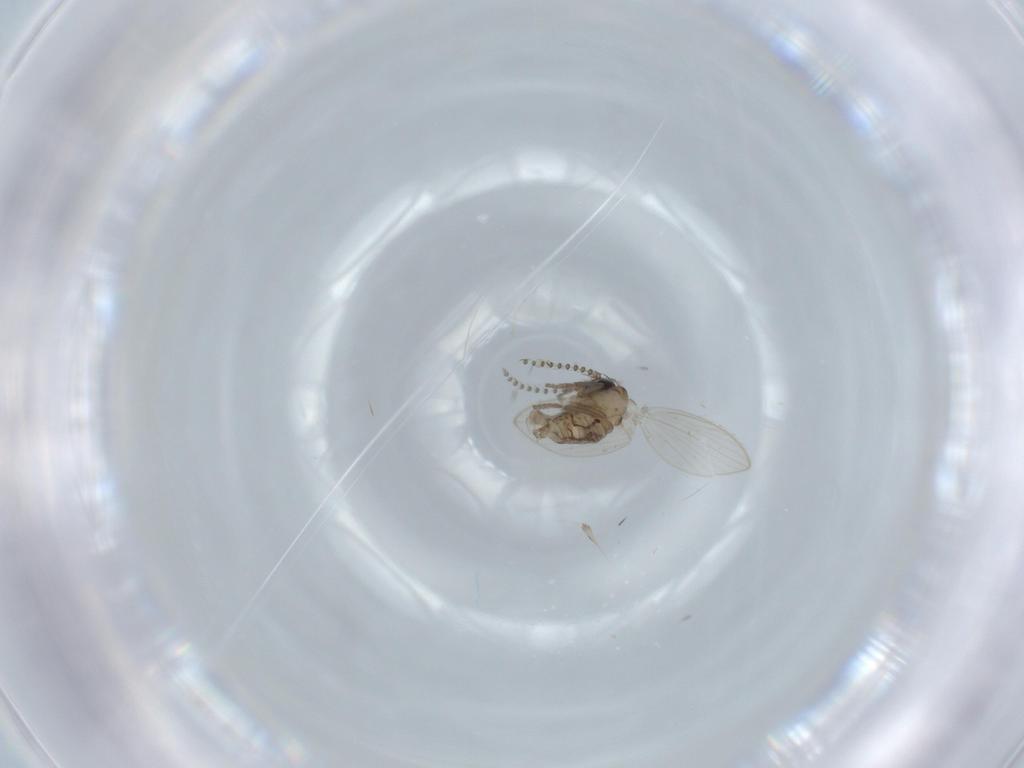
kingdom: Animalia
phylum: Arthropoda
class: Insecta
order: Diptera
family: Psychodidae
